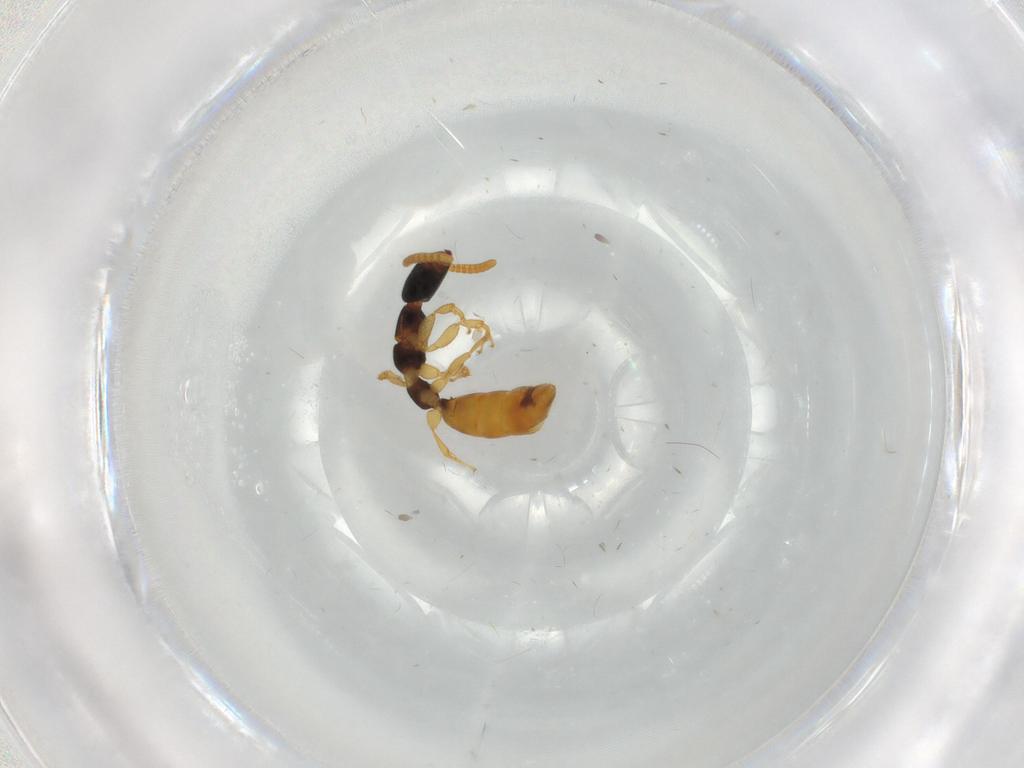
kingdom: Animalia
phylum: Arthropoda
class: Insecta
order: Hymenoptera
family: Bethylidae
